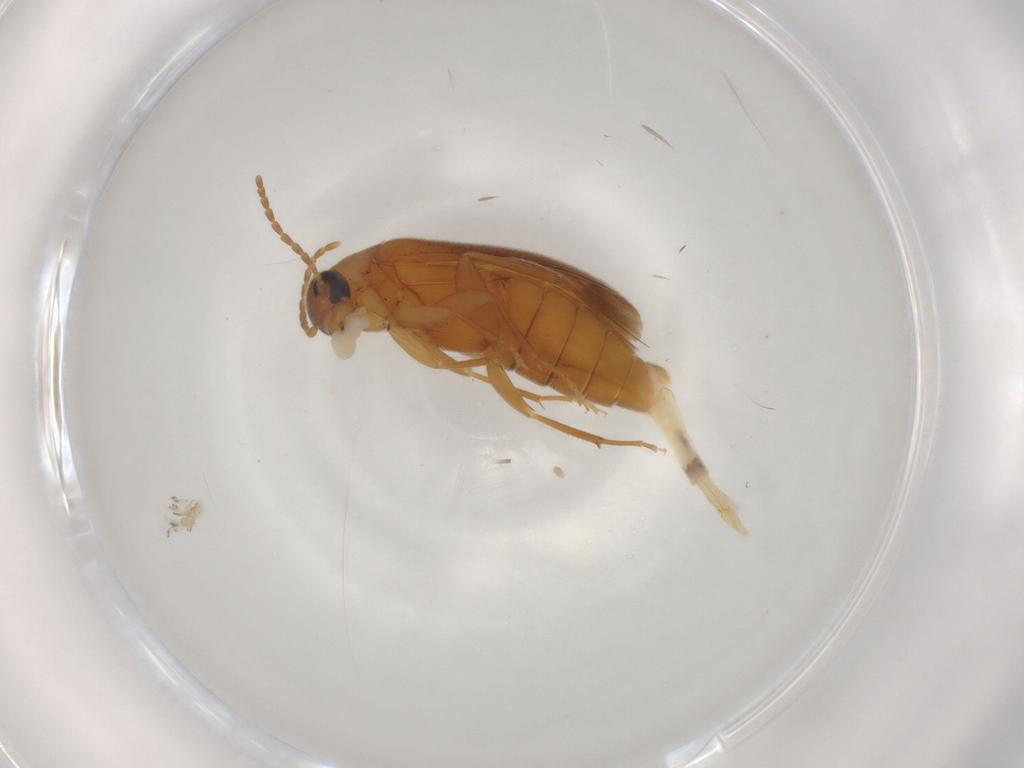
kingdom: Animalia
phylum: Arthropoda
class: Insecta
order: Coleoptera
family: Scraptiidae
